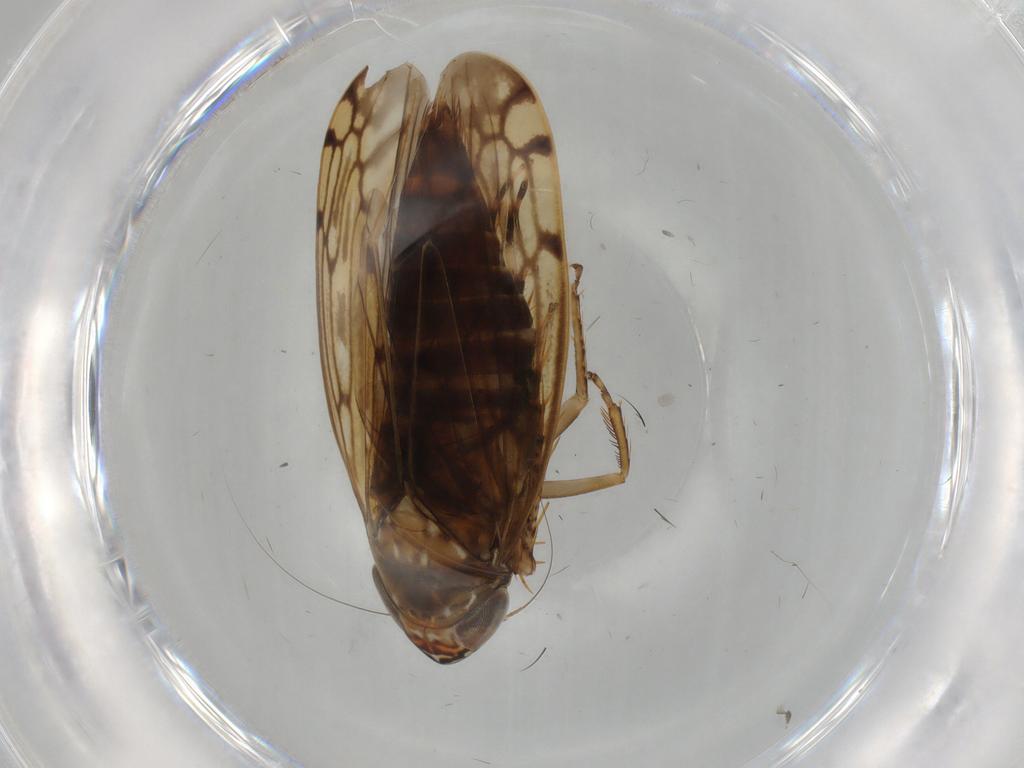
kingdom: Animalia
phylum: Arthropoda
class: Insecta
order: Hemiptera
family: Cicadellidae
